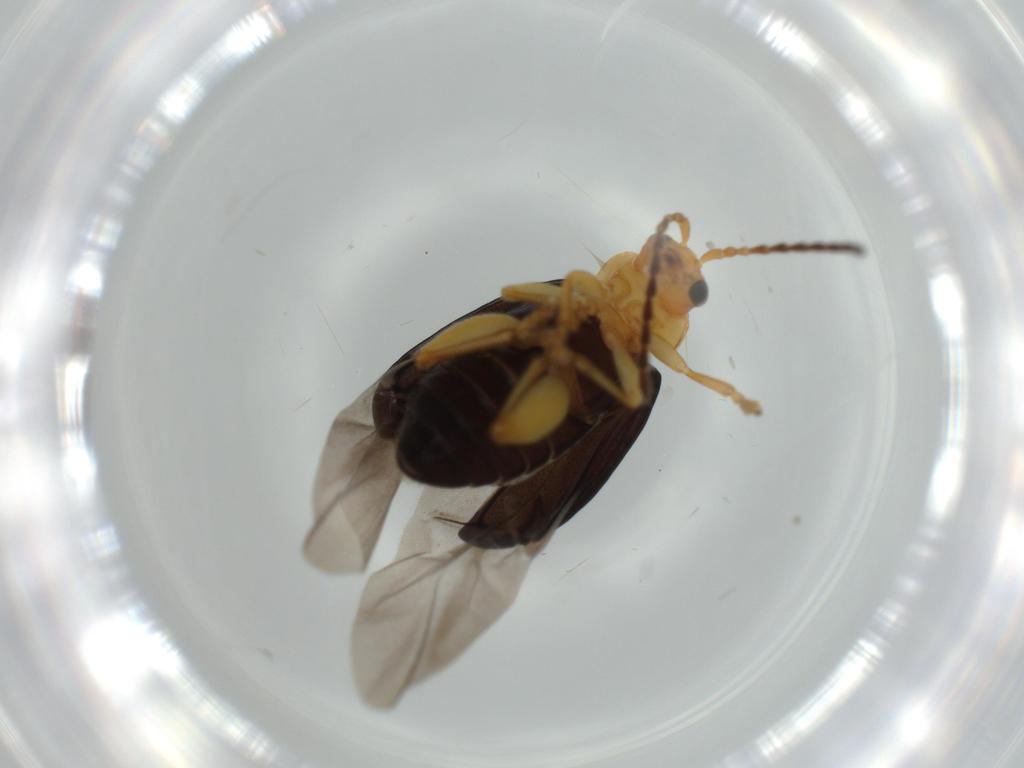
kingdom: Animalia
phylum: Arthropoda
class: Insecta
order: Coleoptera
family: Chrysomelidae
